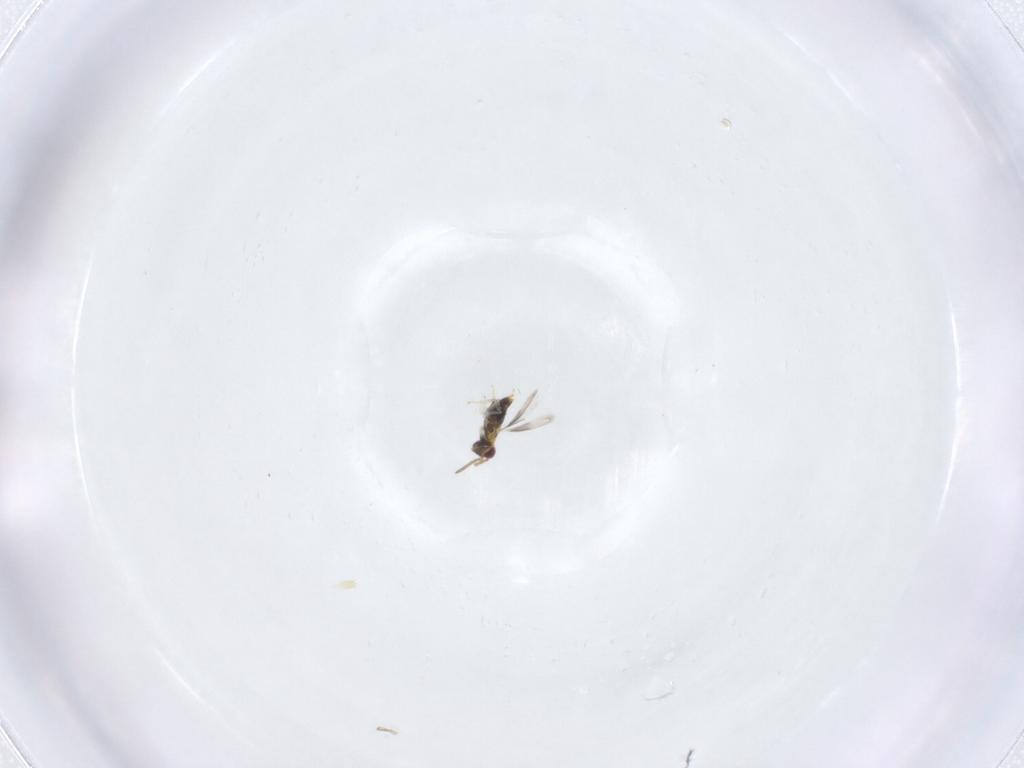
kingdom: Animalia
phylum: Arthropoda
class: Insecta
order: Hymenoptera
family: Aphelinidae
